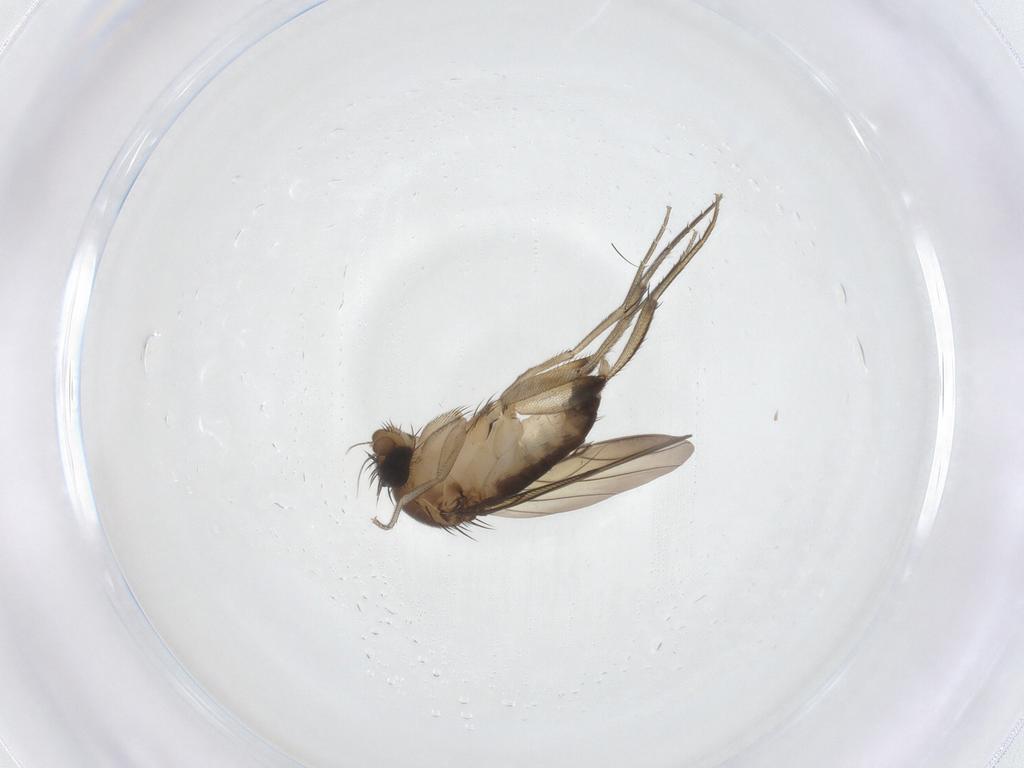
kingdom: Animalia
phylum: Arthropoda
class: Insecta
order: Diptera
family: Phoridae
